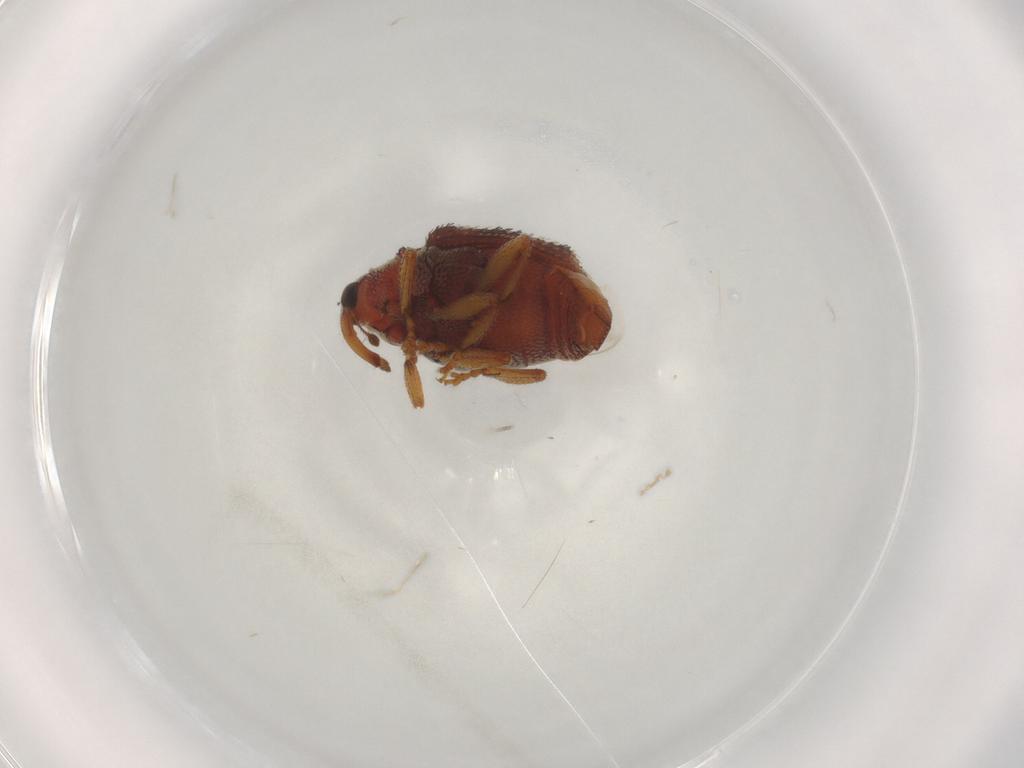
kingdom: Animalia
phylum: Arthropoda
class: Insecta
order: Coleoptera
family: Curculionidae
